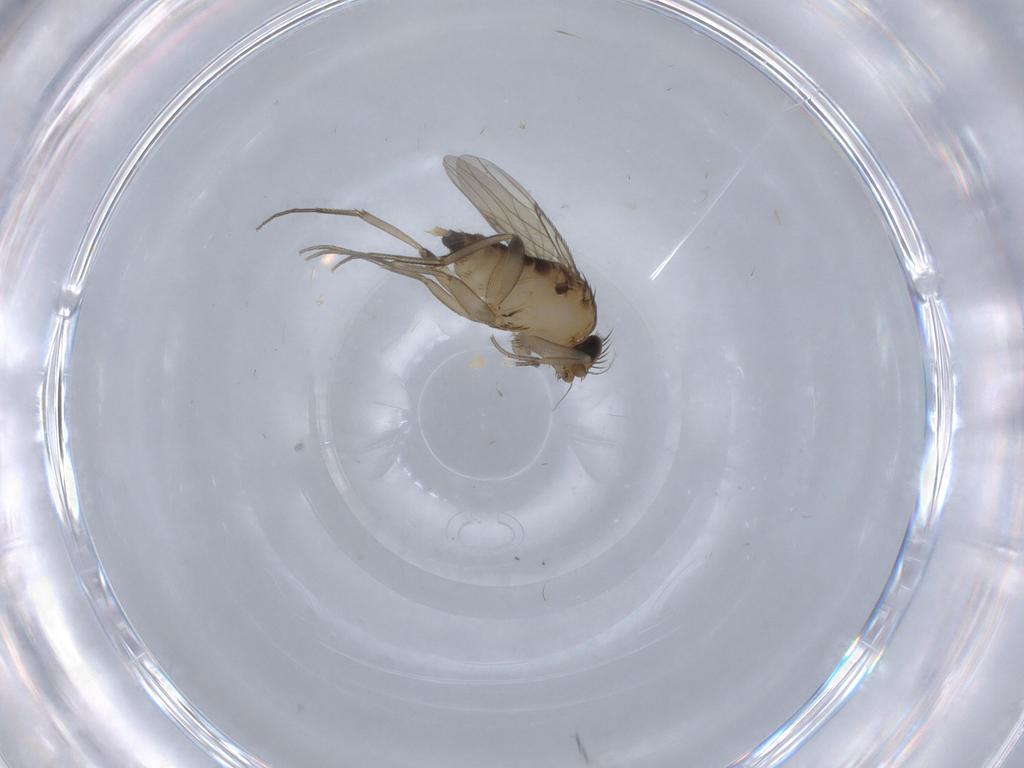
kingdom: Animalia
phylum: Arthropoda
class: Insecta
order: Diptera
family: Phoridae
